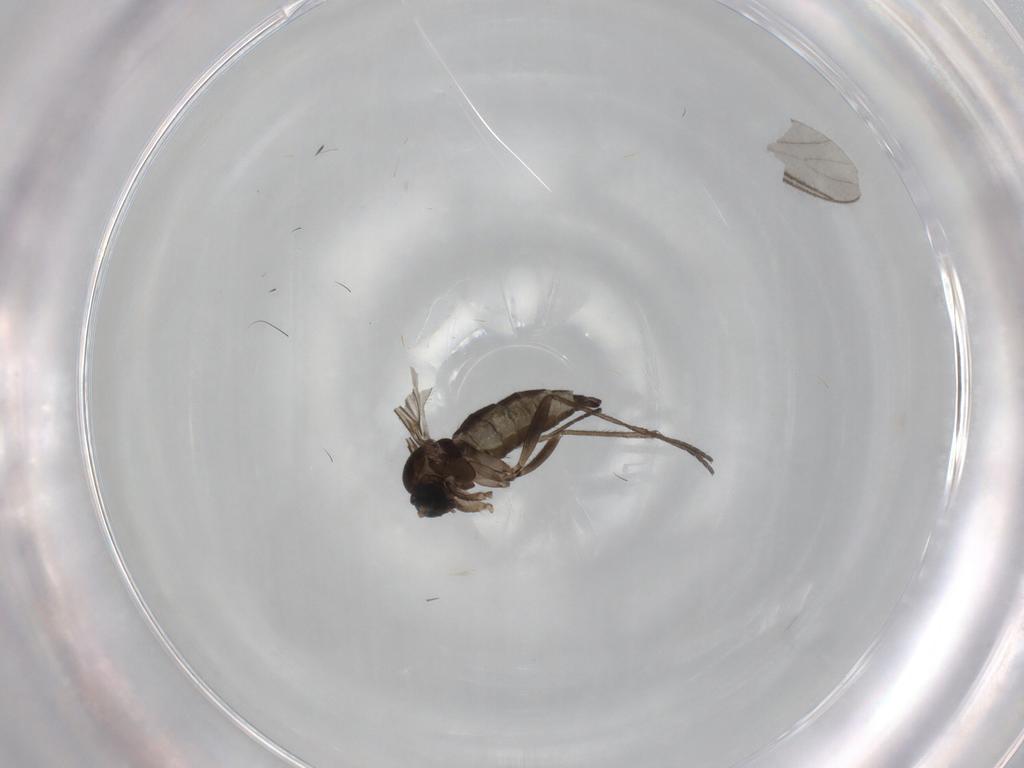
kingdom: Animalia
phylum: Arthropoda
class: Insecta
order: Diptera
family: Sciaridae
